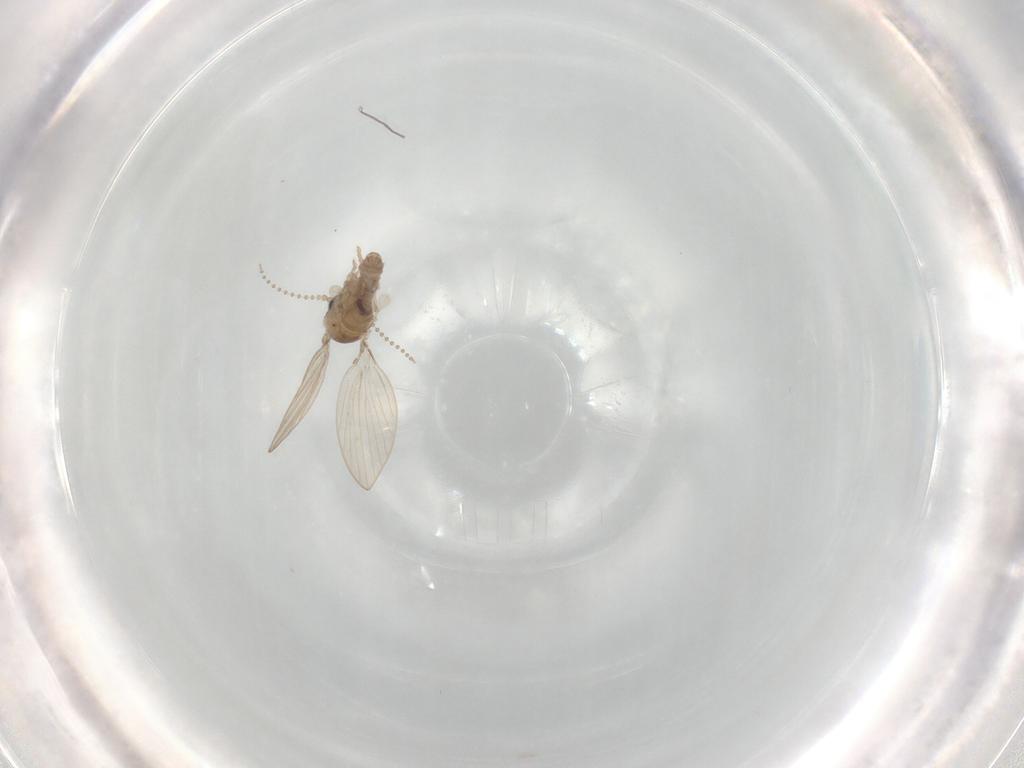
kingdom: Animalia
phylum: Arthropoda
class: Insecta
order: Diptera
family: Psychodidae
